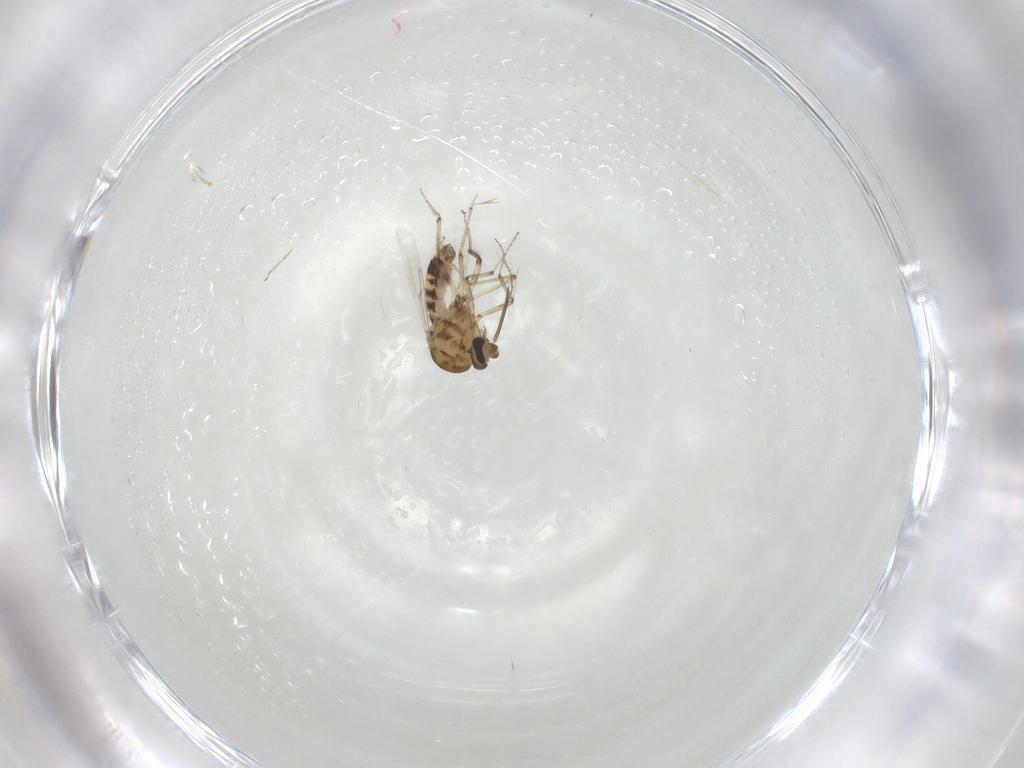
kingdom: Animalia
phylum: Arthropoda
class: Insecta
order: Diptera
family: Ceratopogonidae
